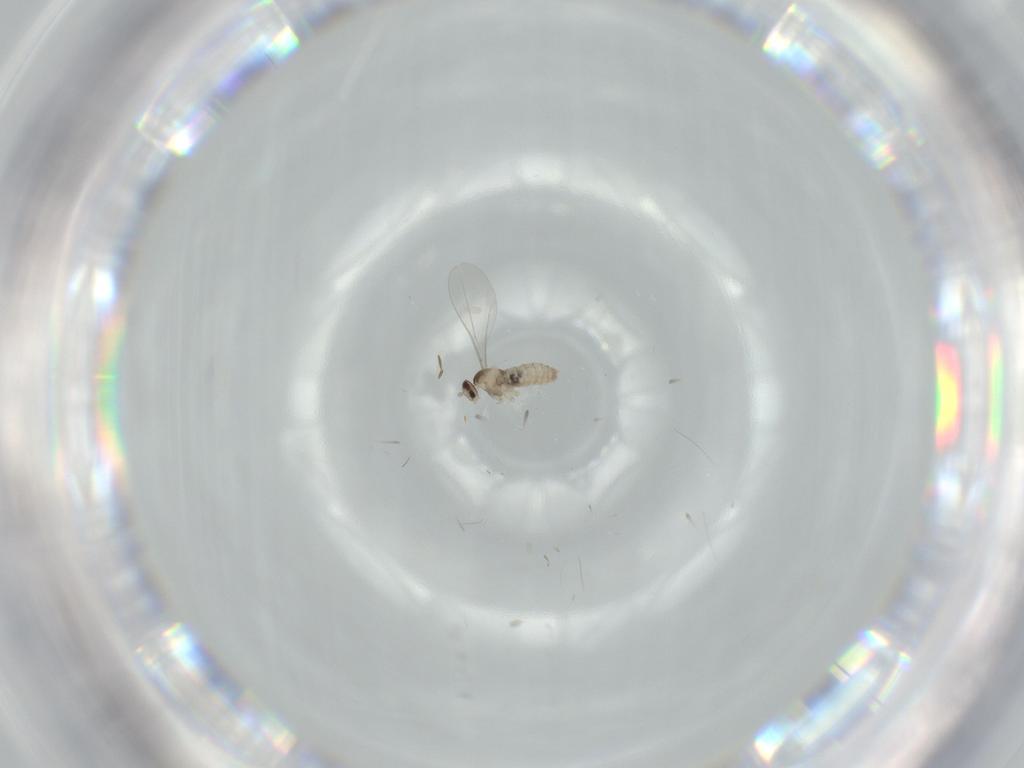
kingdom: Animalia
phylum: Arthropoda
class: Insecta
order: Diptera
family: Cecidomyiidae
